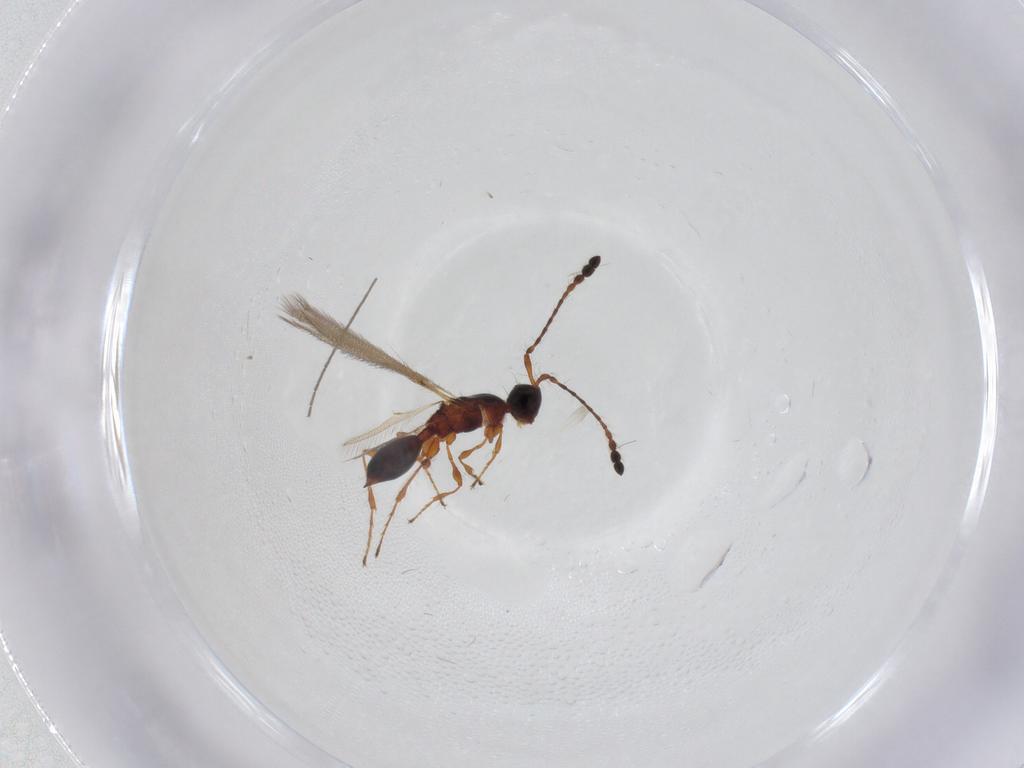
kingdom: Animalia
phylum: Arthropoda
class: Insecta
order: Hymenoptera
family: Diapriidae
